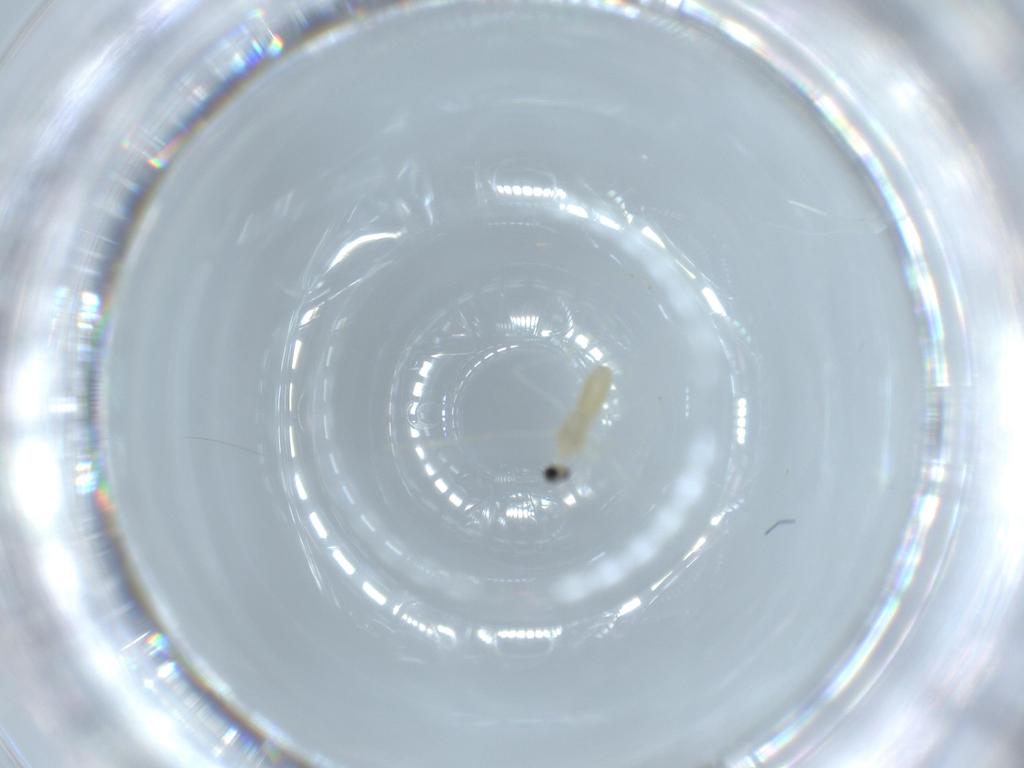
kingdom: Animalia
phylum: Arthropoda
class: Insecta
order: Diptera
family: Cecidomyiidae
